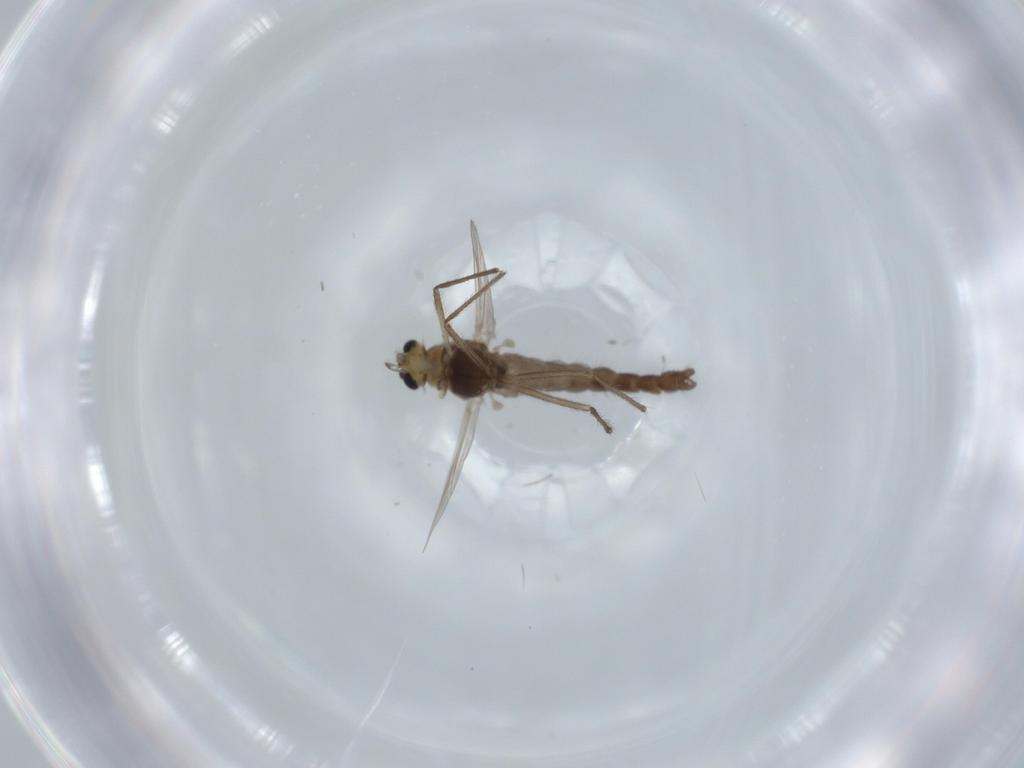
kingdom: Animalia
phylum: Arthropoda
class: Insecta
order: Diptera
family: Chironomidae
